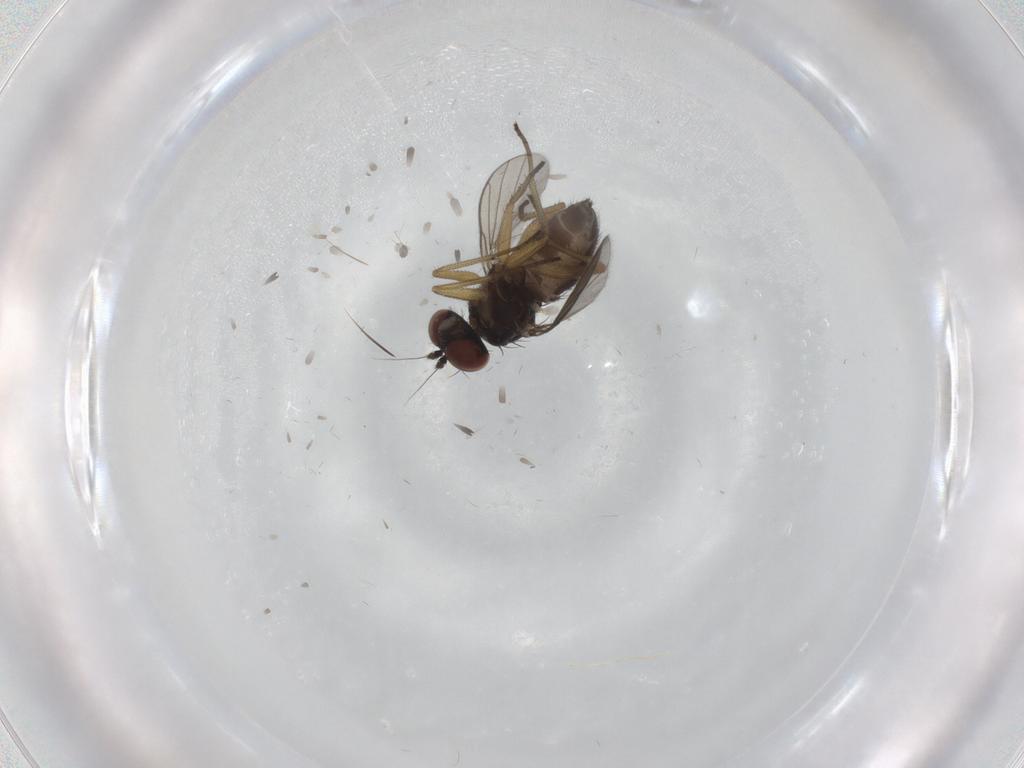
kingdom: Animalia
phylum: Arthropoda
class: Insecta
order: Diptera
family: Dolichopodidae
